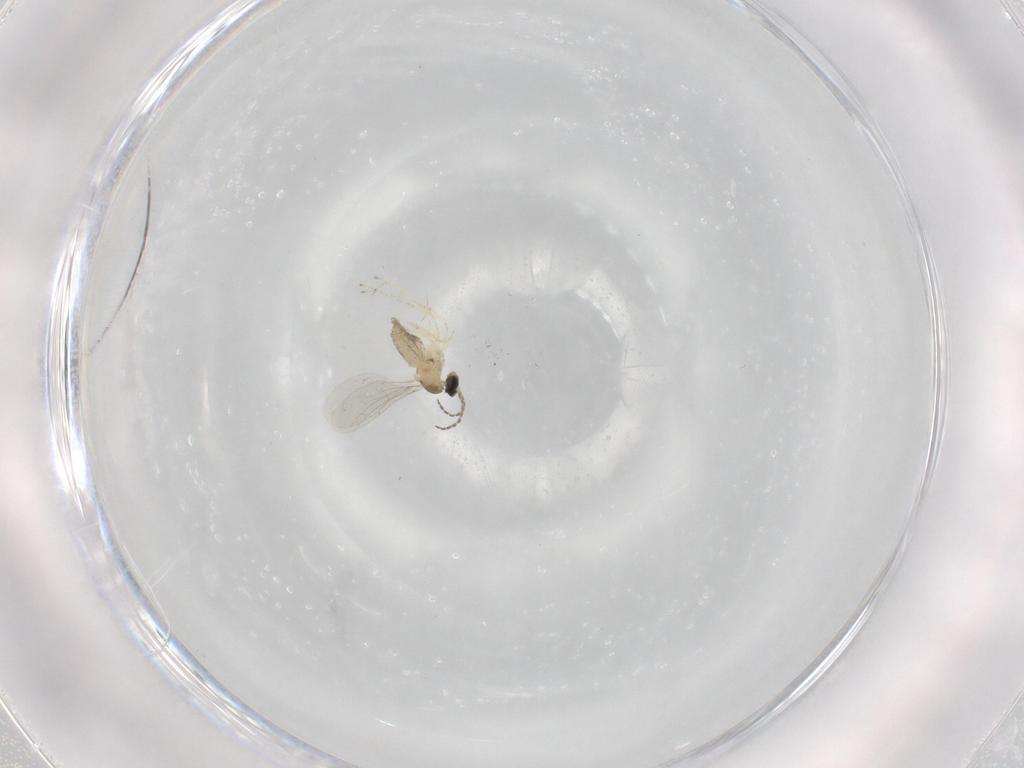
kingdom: Animalia
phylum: Arthropoda
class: Insecta
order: Diptera
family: Cecidomyiidae
